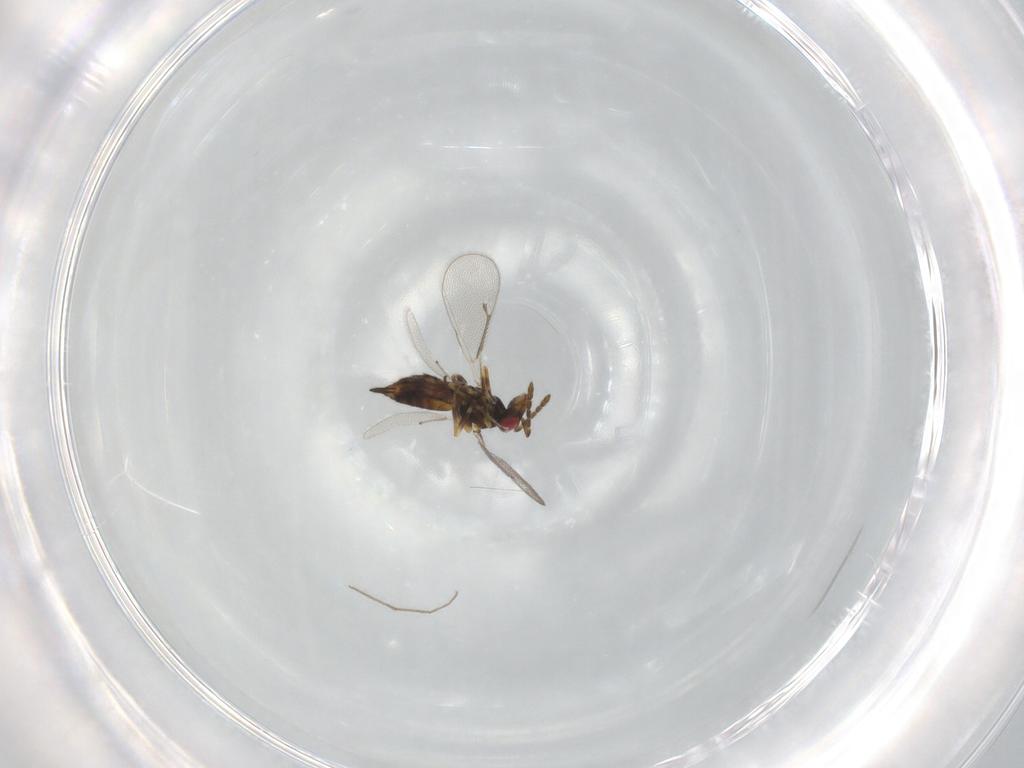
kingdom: Animalia
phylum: Arthropoda
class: Insecta
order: Hymenoptera
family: Eulophidae
